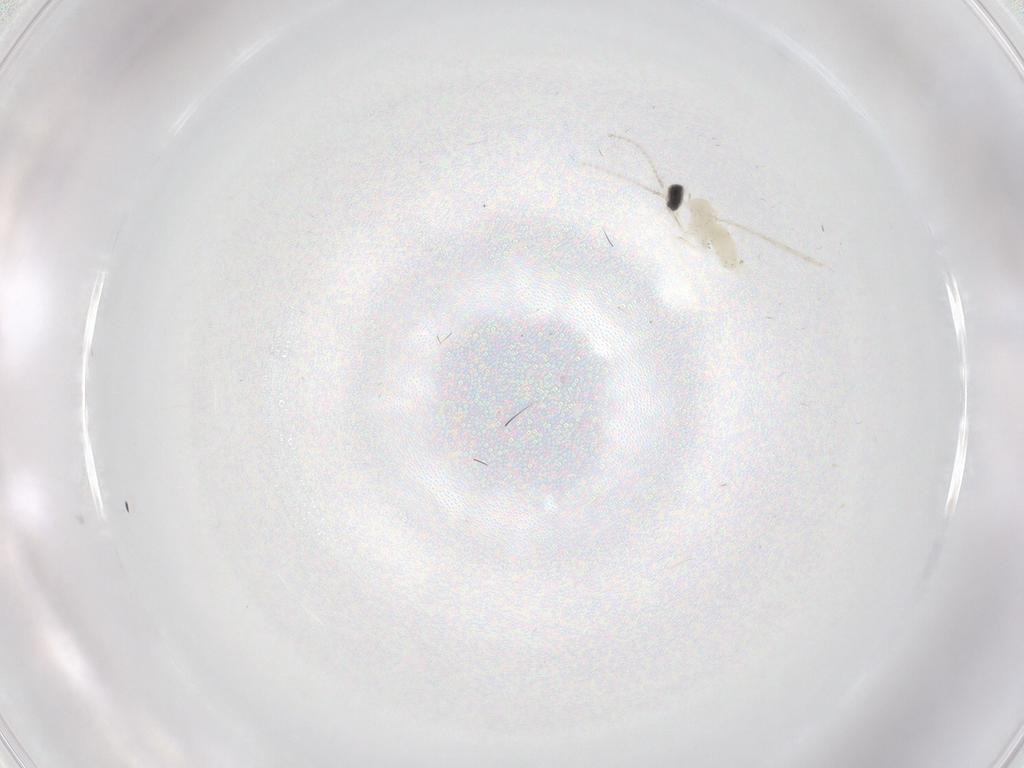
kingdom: Animalia
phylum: Arthropoda
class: Insecta
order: Diptera
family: Cecidomyiidae
